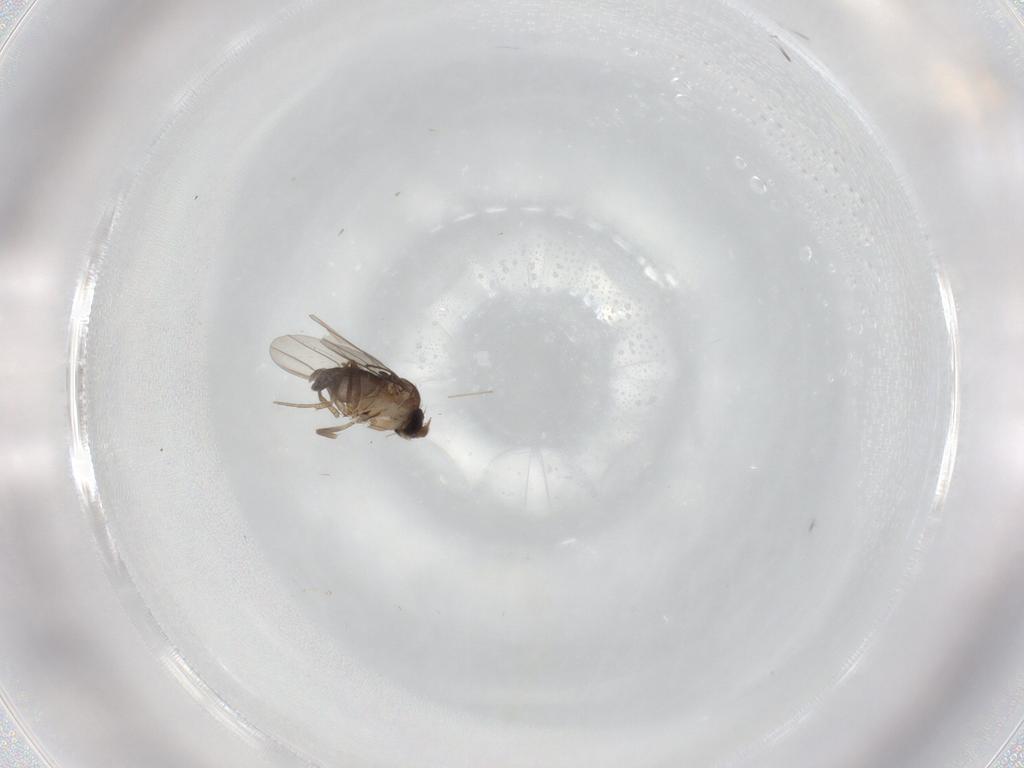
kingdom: Animalia
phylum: Arthropoda
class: Insecta
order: Diptera
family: Phoridae
